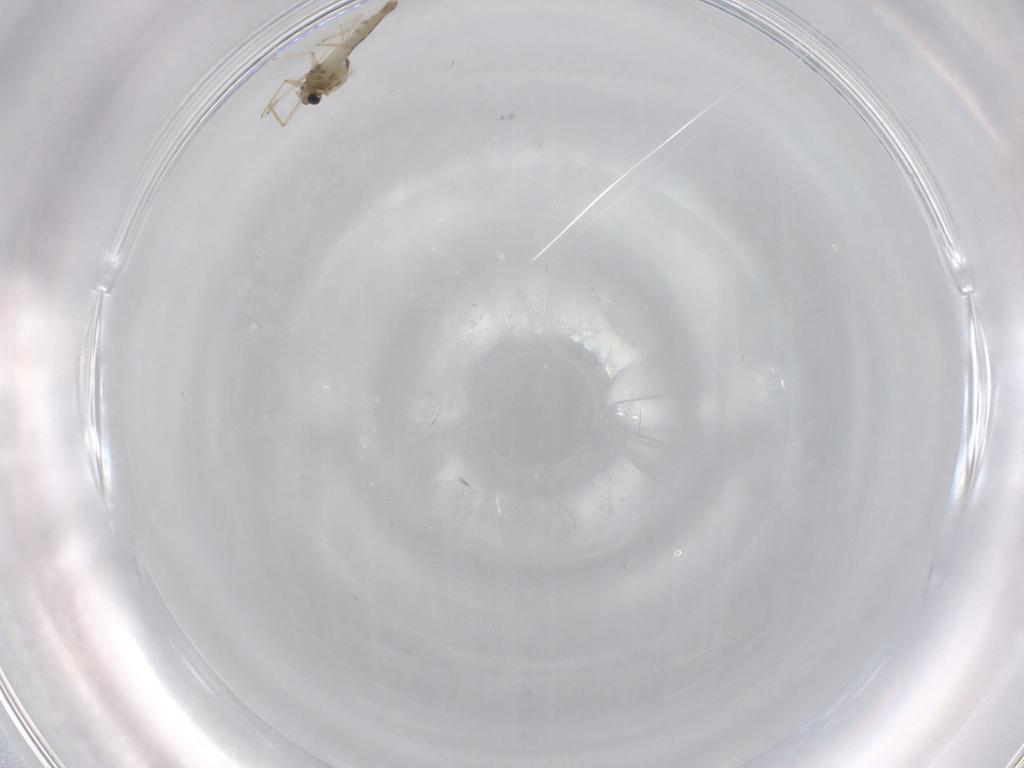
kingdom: Animalia
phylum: Arthropoda
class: Insecta
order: Diptera
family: Chironomidae
